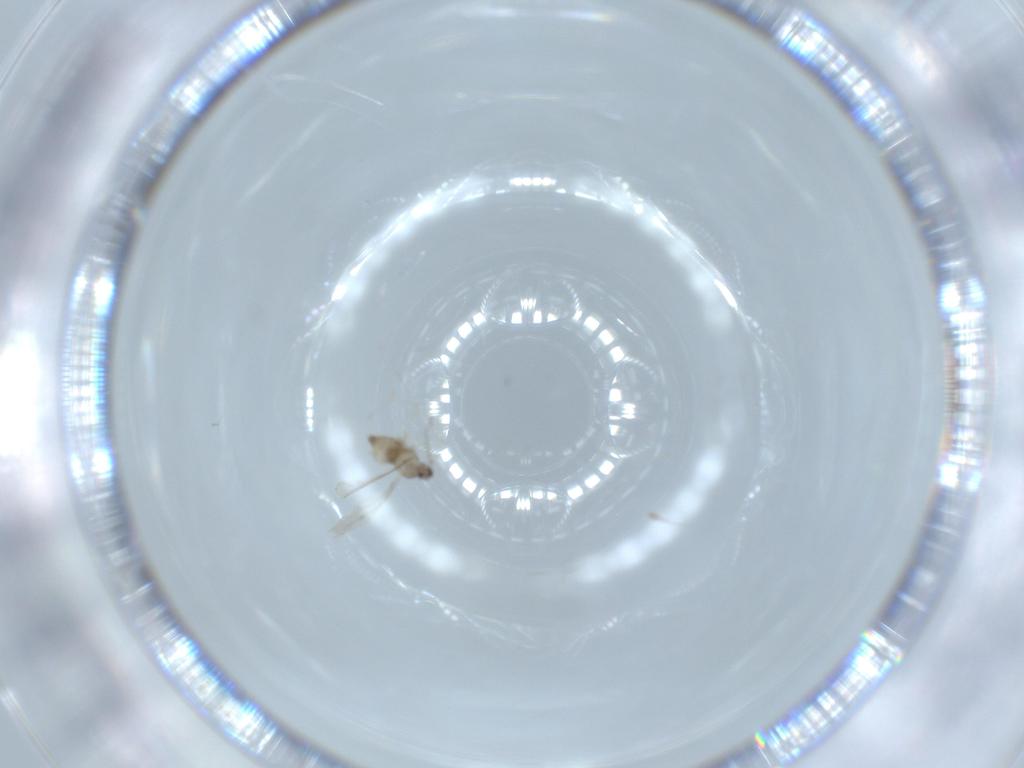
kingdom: Animalia
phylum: Arthropoda
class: Insecta
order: Diptera
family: Cecidomyiidae
